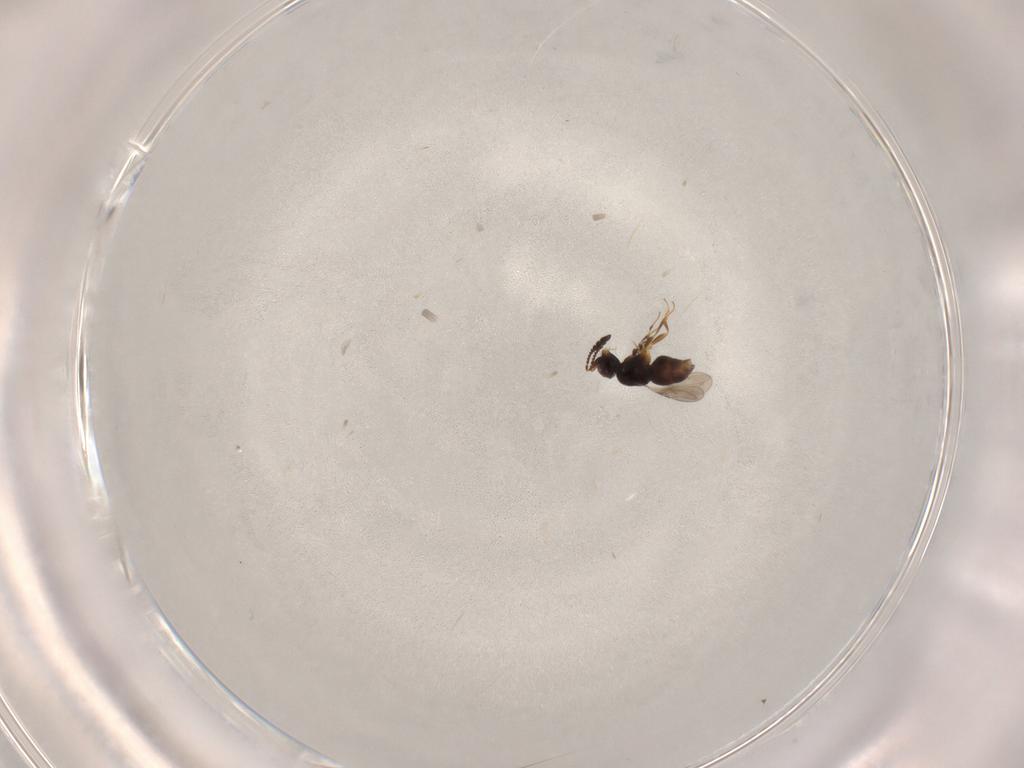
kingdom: Animalia
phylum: Arthropoda
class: Insecta
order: Hymenoptera
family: Ceraphronidae
